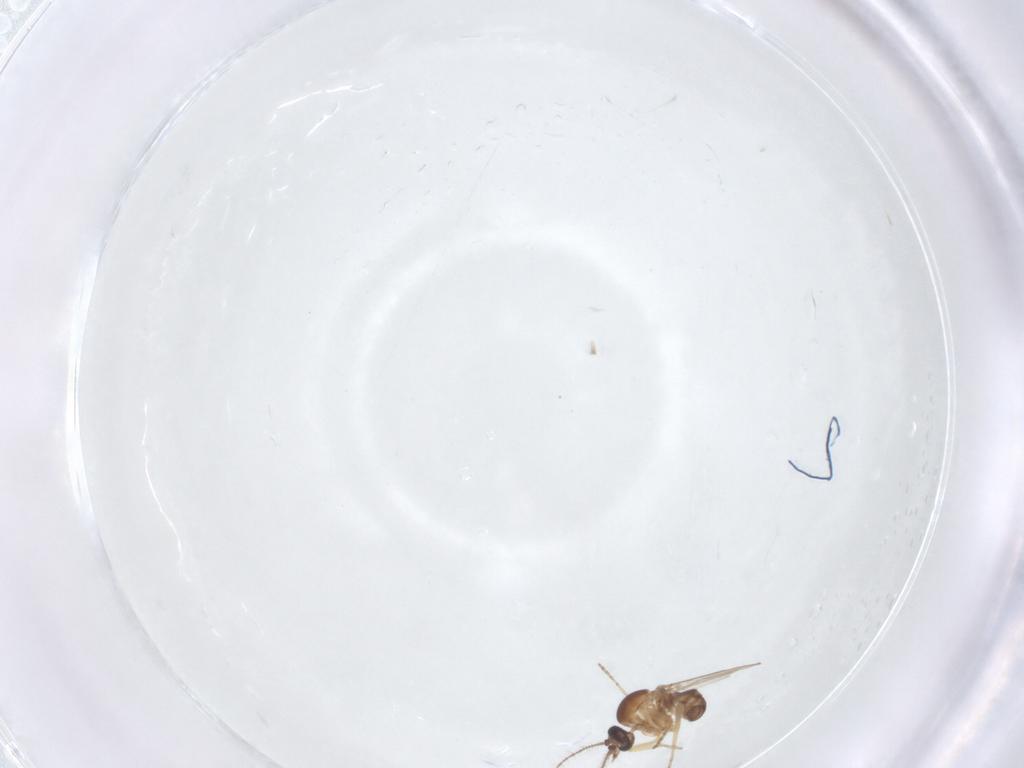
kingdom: Animalia
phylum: Arthropoda
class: Insecta
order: Diptera
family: Ceratopogonidae
